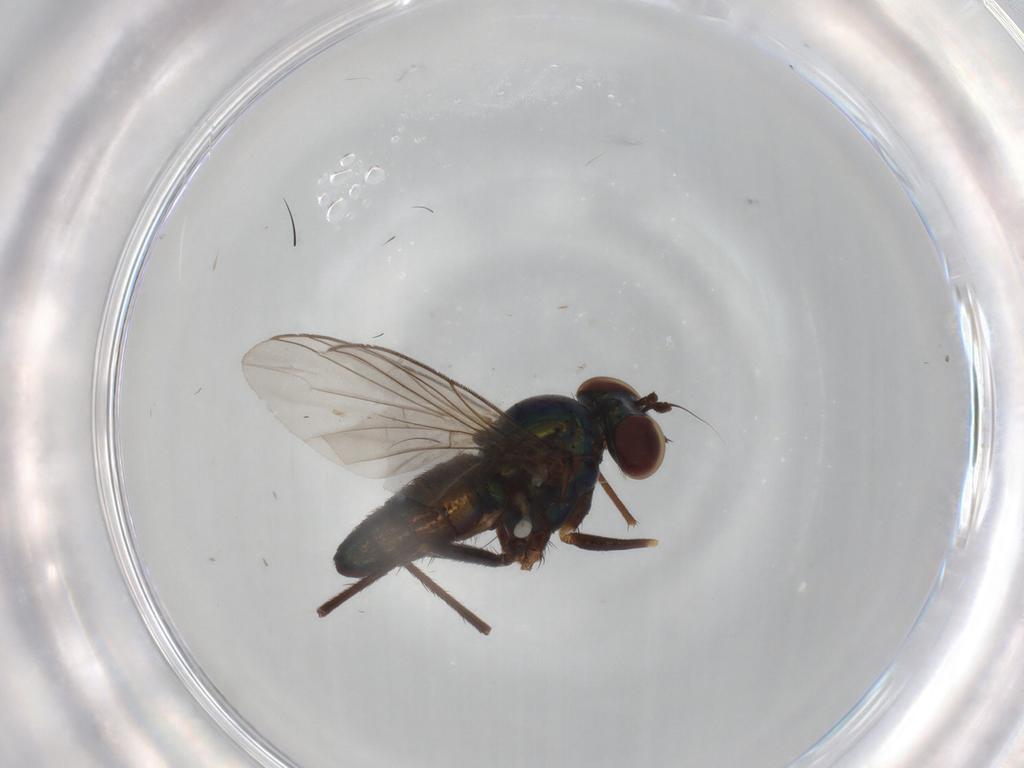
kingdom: Animalia
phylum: Arthropoda
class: Insecta
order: Diptera
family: Dolichopodidae
